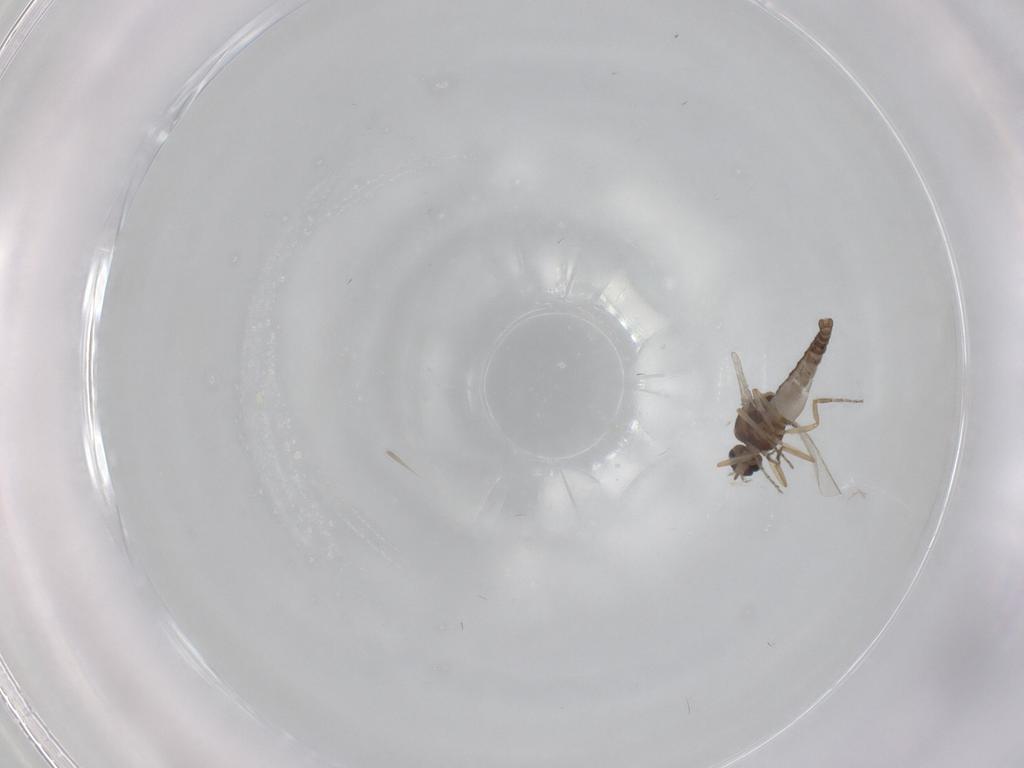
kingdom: Animalia
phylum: Arthropoda
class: Insecta
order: Diptera
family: Ceratopogonidae
